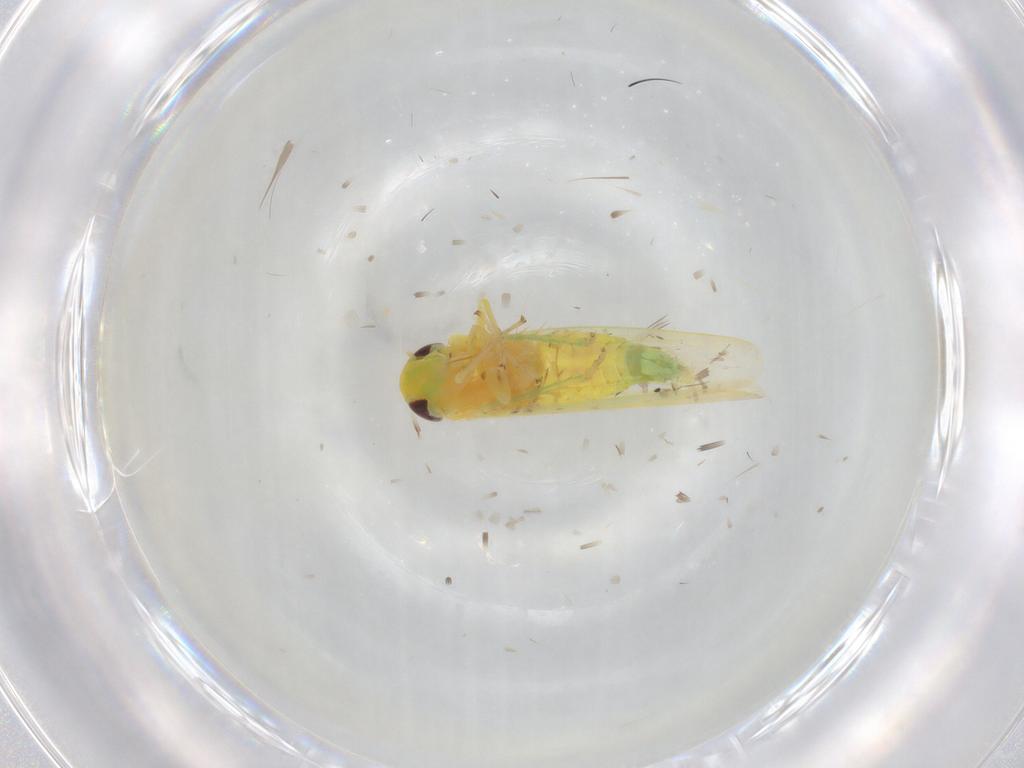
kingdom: Animalia
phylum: Arthropoda
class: Insecta
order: Hemiptera
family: Cicadellidae
